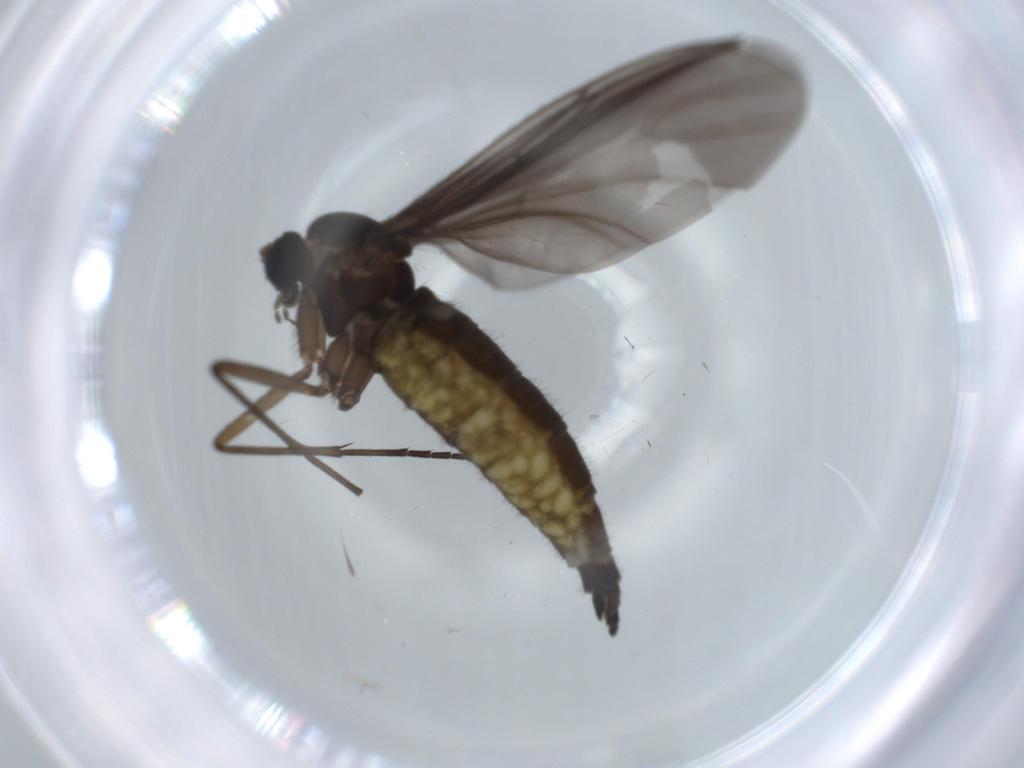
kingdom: Animalia
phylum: Arthropoda
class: Insecta
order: Diptera
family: Sciaridae
